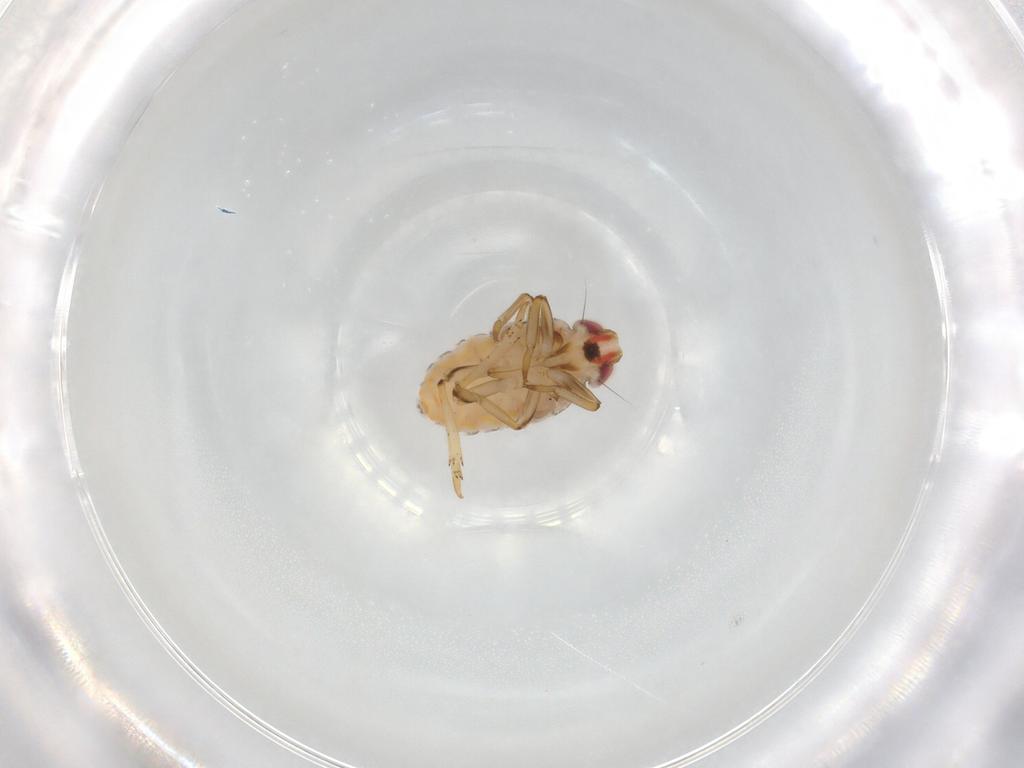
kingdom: Animalia
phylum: Arthropoda
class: Insecta
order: Hemiptera
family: Issidae
